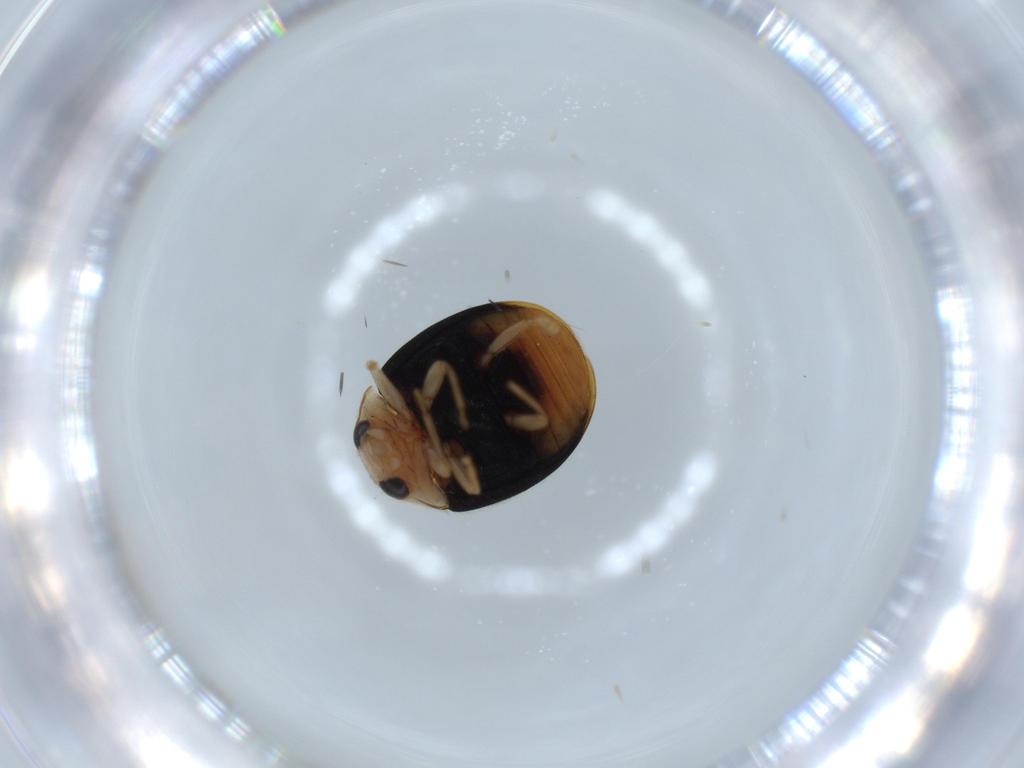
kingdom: Animalia
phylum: Arthropoda
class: Insecta
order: Coleoptera
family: Coccinellidae
